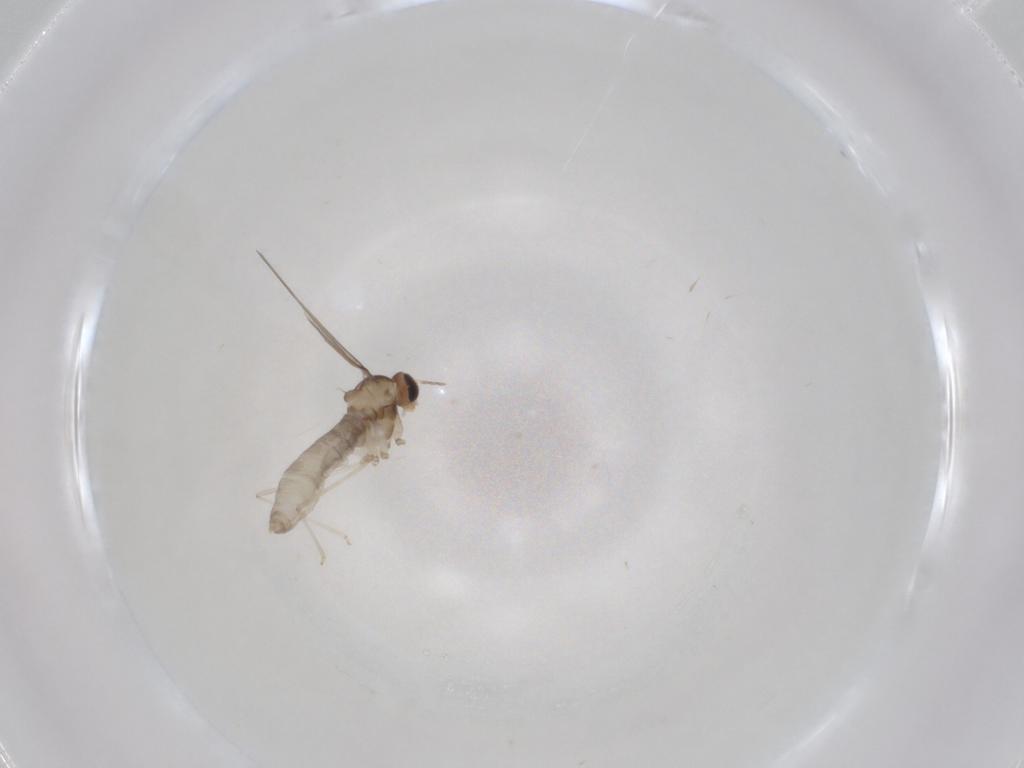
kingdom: Animalia
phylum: Arthropoda
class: Insecta
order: Diptera
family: Cecidomyiidae
